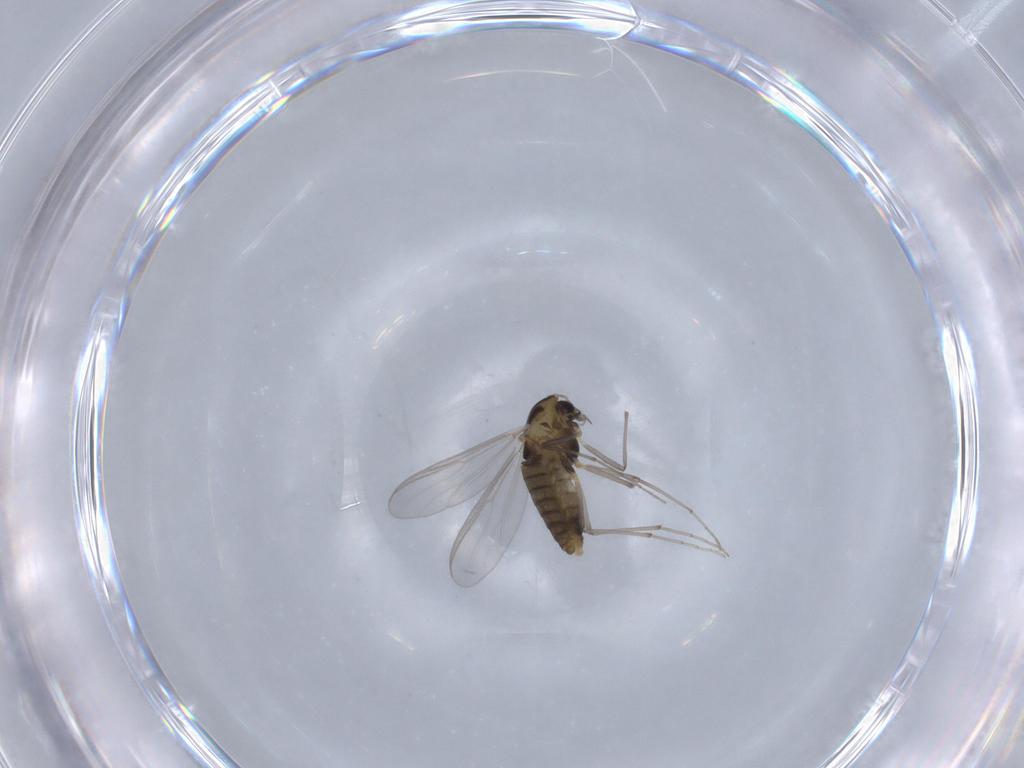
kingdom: Animalia
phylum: Arthropoda
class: Insecta
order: Diptera
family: Chironomidae
